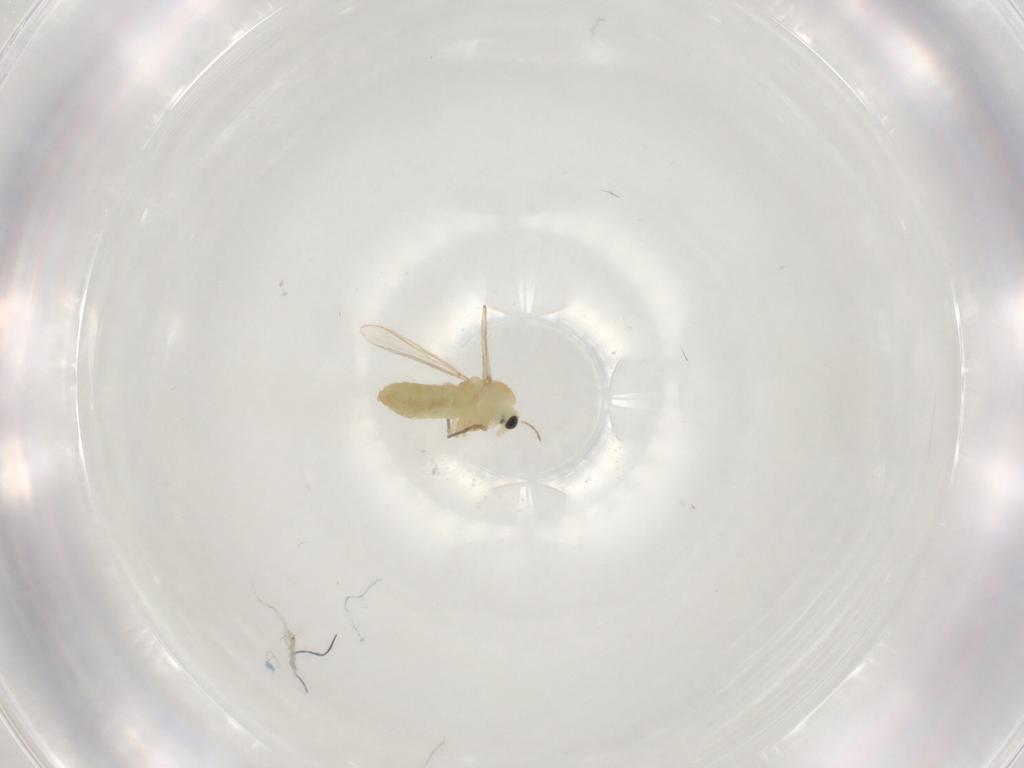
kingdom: Animalia
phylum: Arthropoda
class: Insecta
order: Diptera
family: Chironomidae
